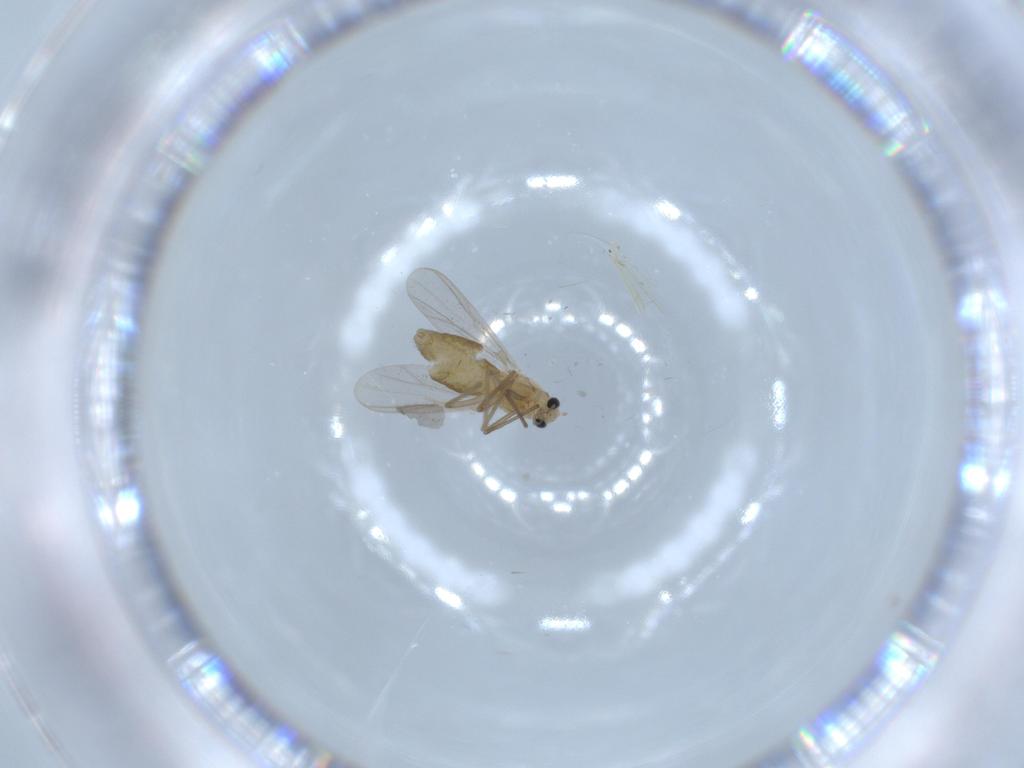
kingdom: Animalia
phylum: Arthropoda
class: Insecta
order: Diptera
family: Chironomidae
